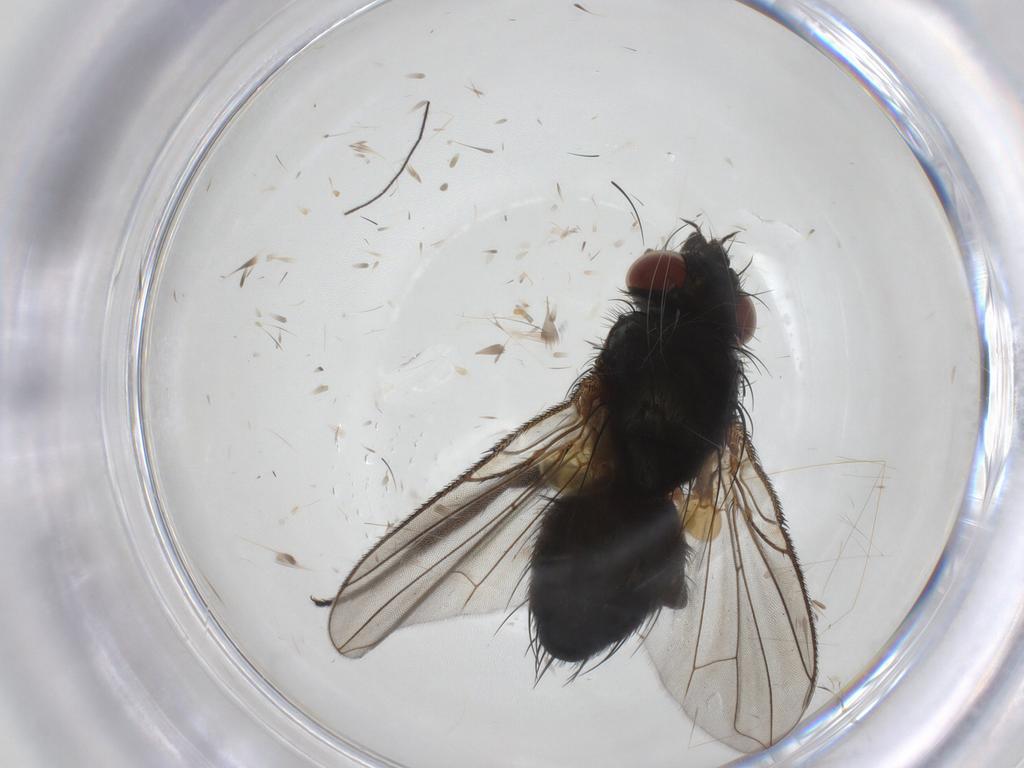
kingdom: Animalia
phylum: Arthropoda
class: Insecta
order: Diptera
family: Tachinidae
